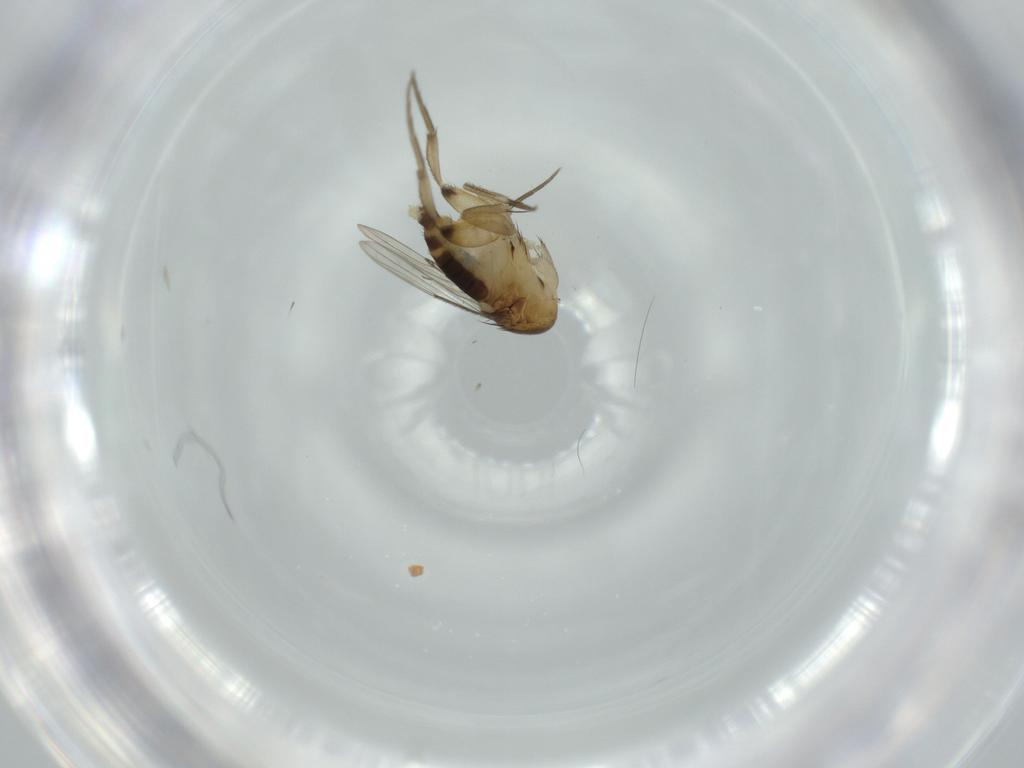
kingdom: Animalia
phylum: Arthropoda
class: Insecta
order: Diptera
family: Phoridae
